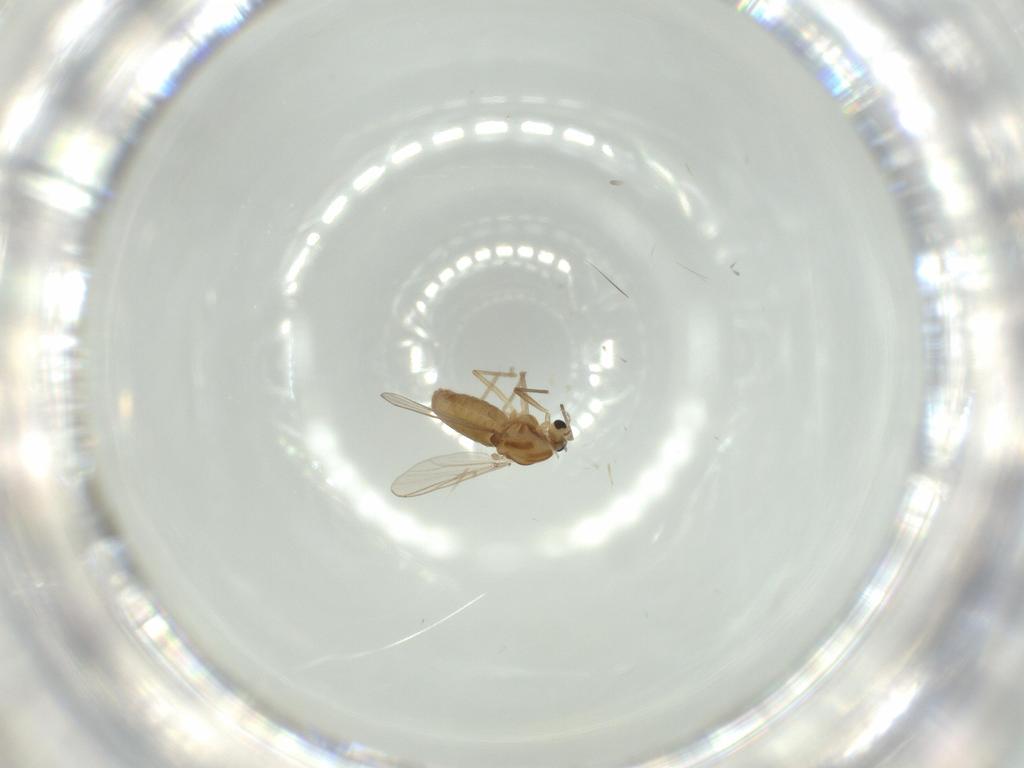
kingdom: Animalia
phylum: Arthropoda
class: Insecta
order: Diptera
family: Chironomidae
